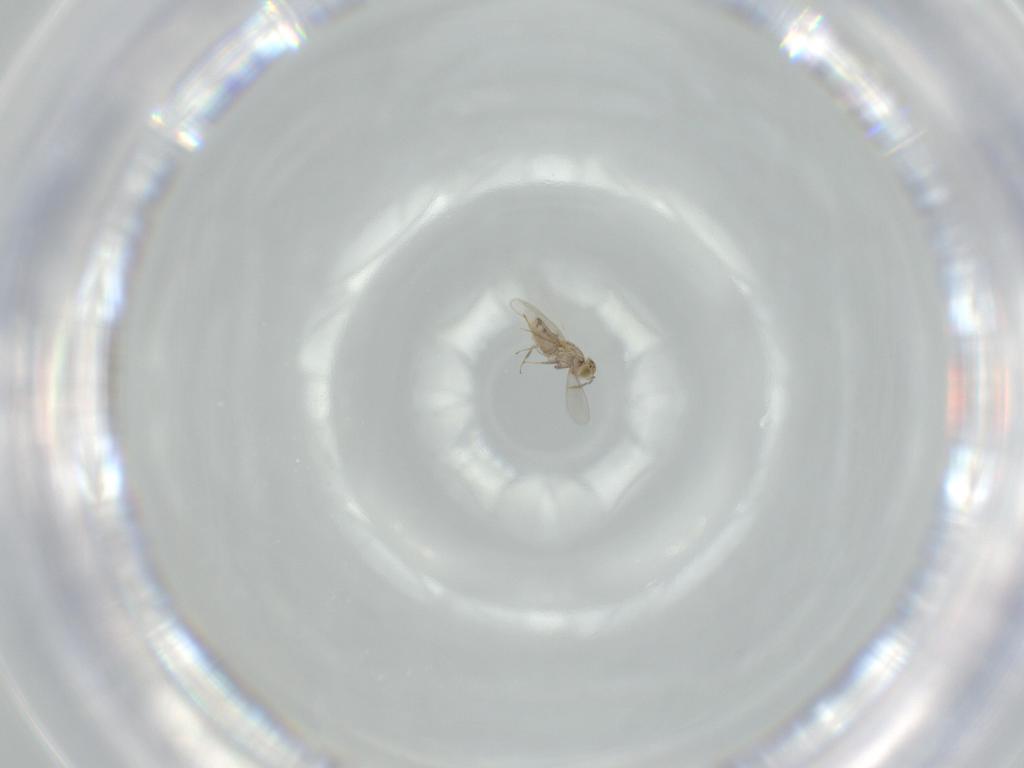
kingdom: Animalia
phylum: Arthropoda
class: Insecta
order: Hymenoptera
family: Aphelinidae
